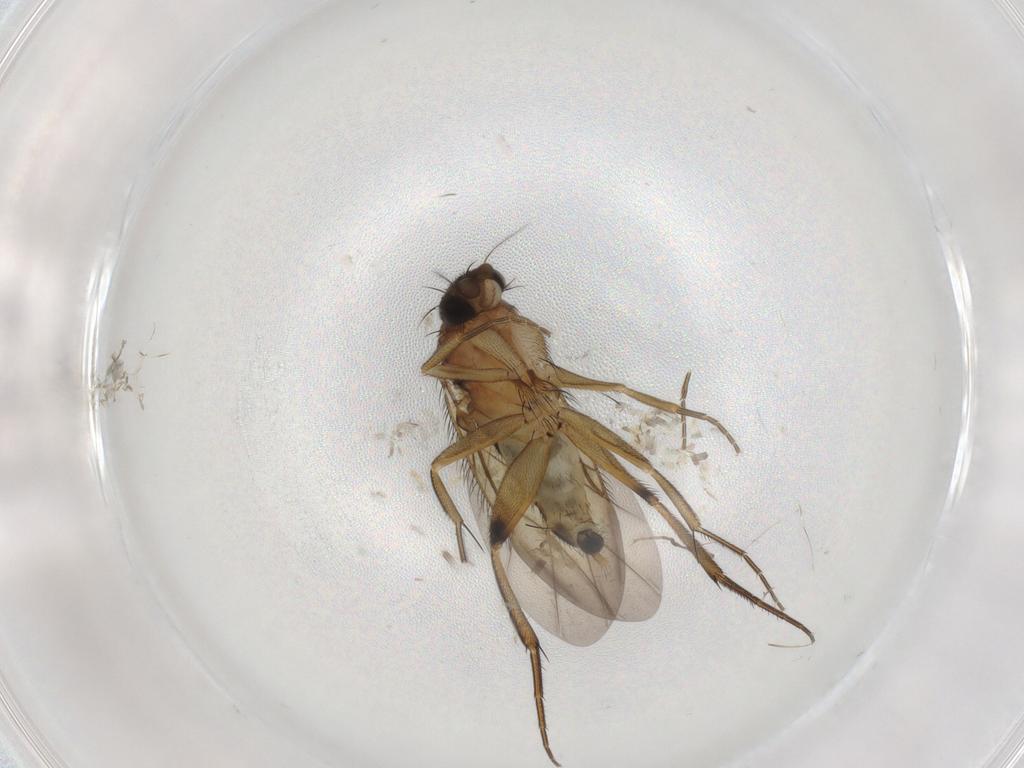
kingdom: Animalia
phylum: Arthropoda
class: Insecta
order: Diptera
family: Phoridae
